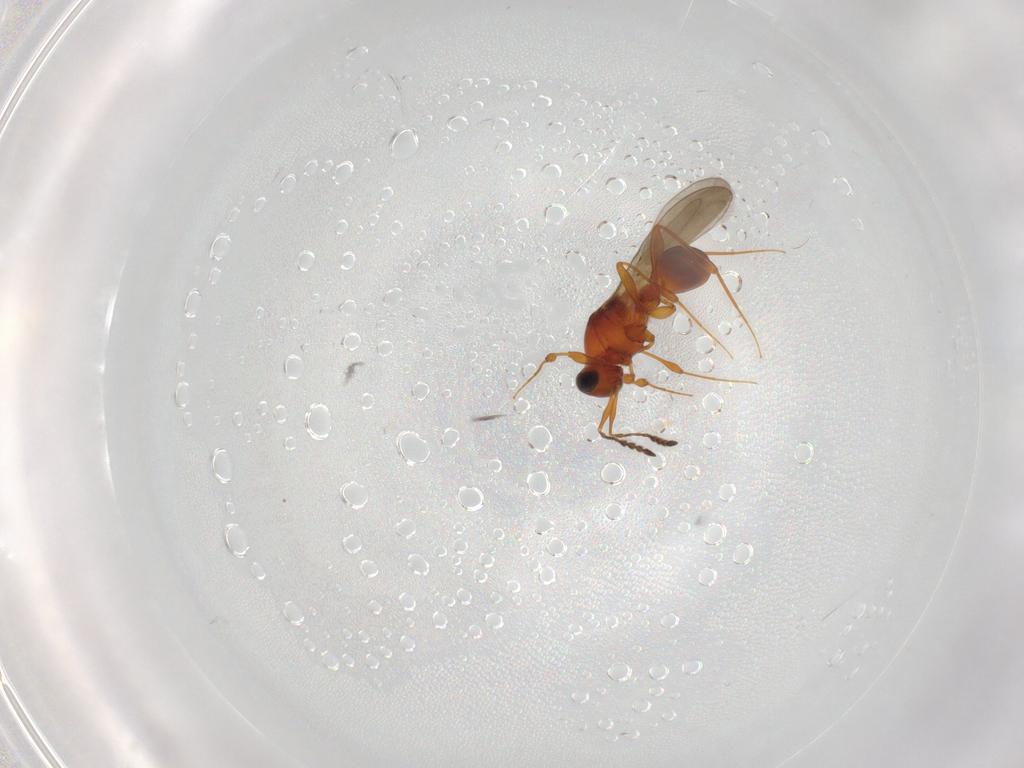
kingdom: Animalia
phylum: Arthropoda
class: Insecta
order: Hymenoptera
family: Platygastridae
